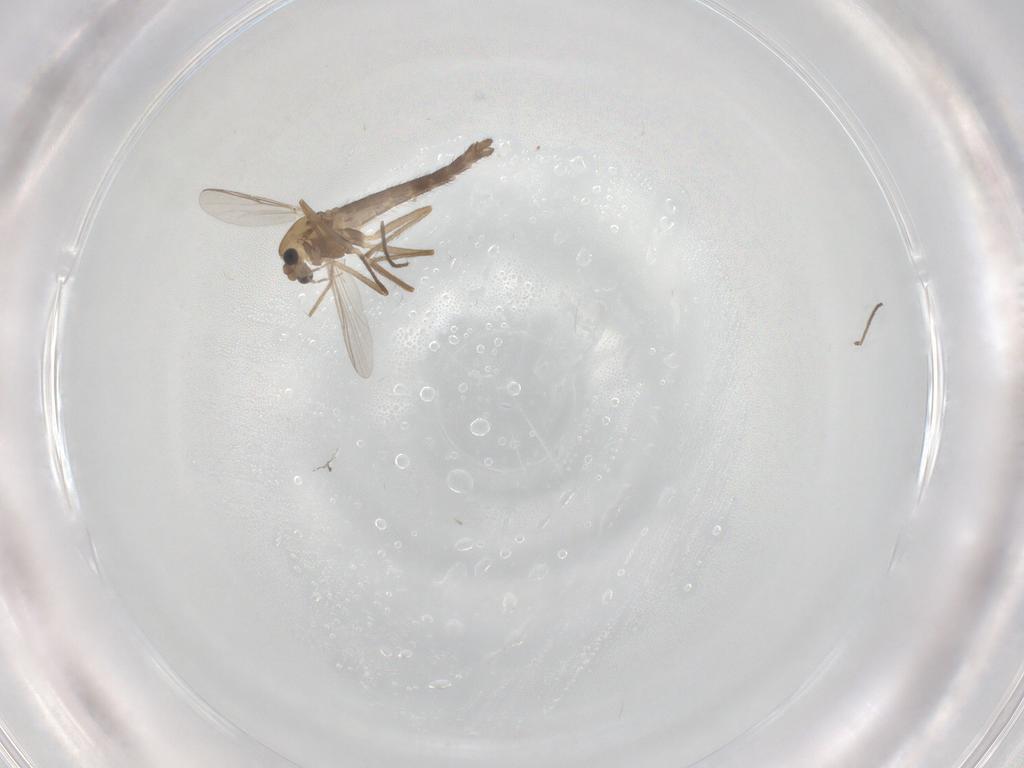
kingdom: Animalia
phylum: Arthropoda
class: Insecta
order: Diptera
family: Chironomidae
